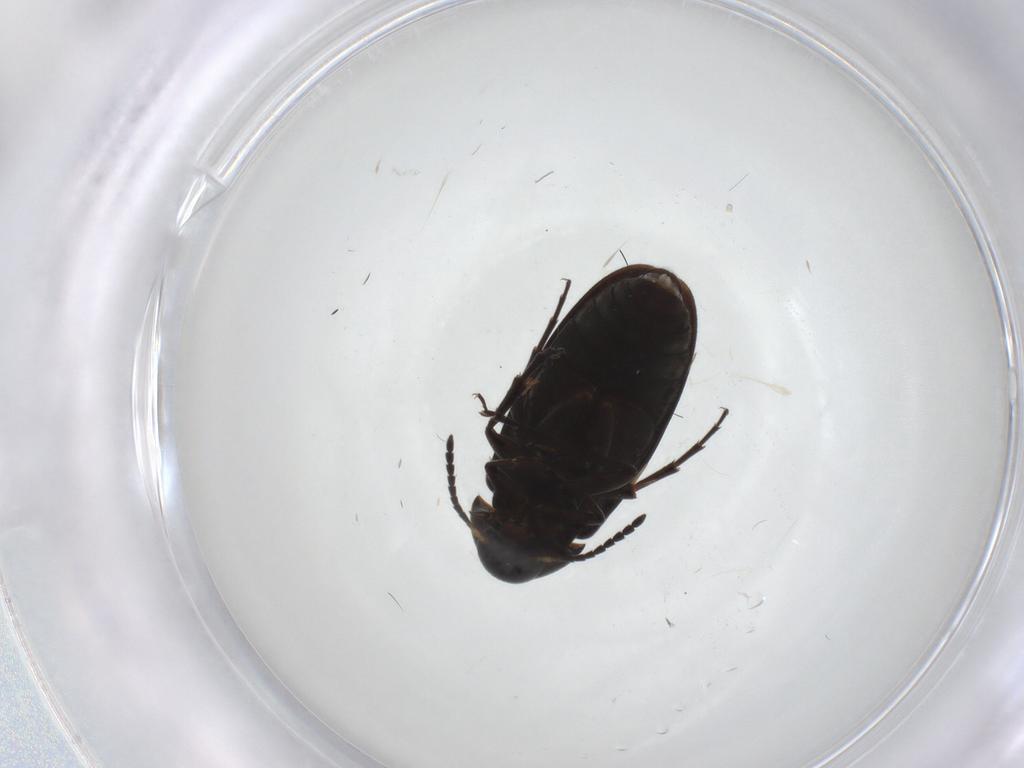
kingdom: Animalia
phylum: Arthropoda
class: Insecta
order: Coleoptera
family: Scraptiidae
